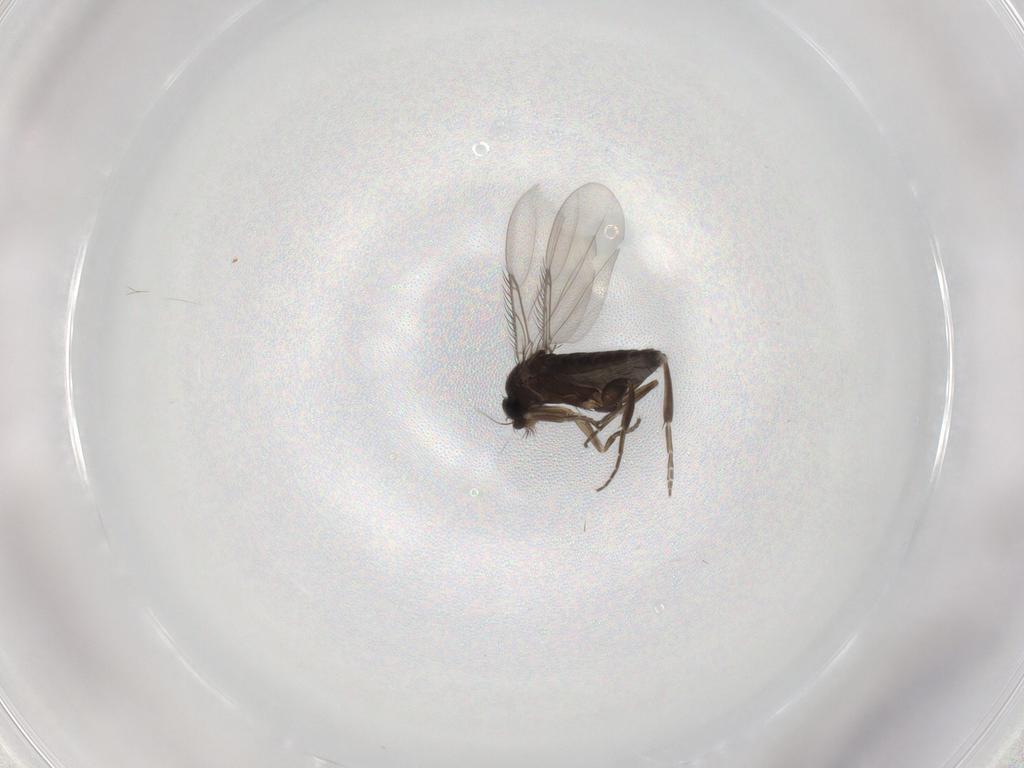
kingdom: Animalia
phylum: Arthropoda
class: Insecta
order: Diptera
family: Phoridae
